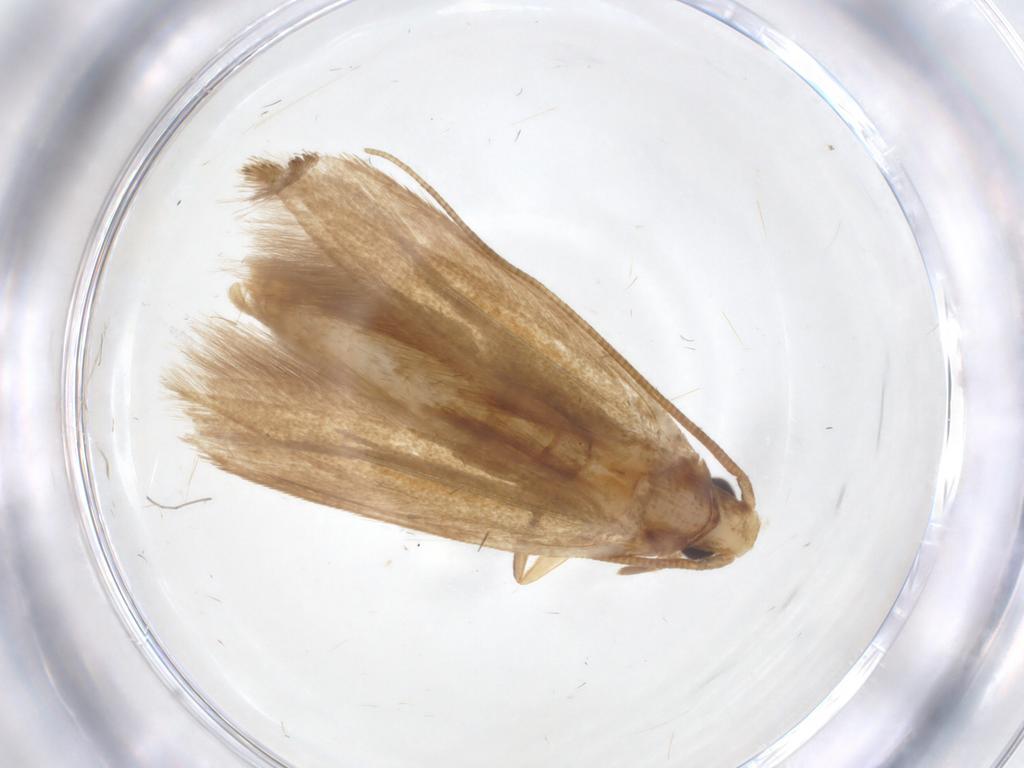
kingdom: Animalia
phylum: Arthropoda
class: Insecta
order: Lepidoptera
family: Tineidae
